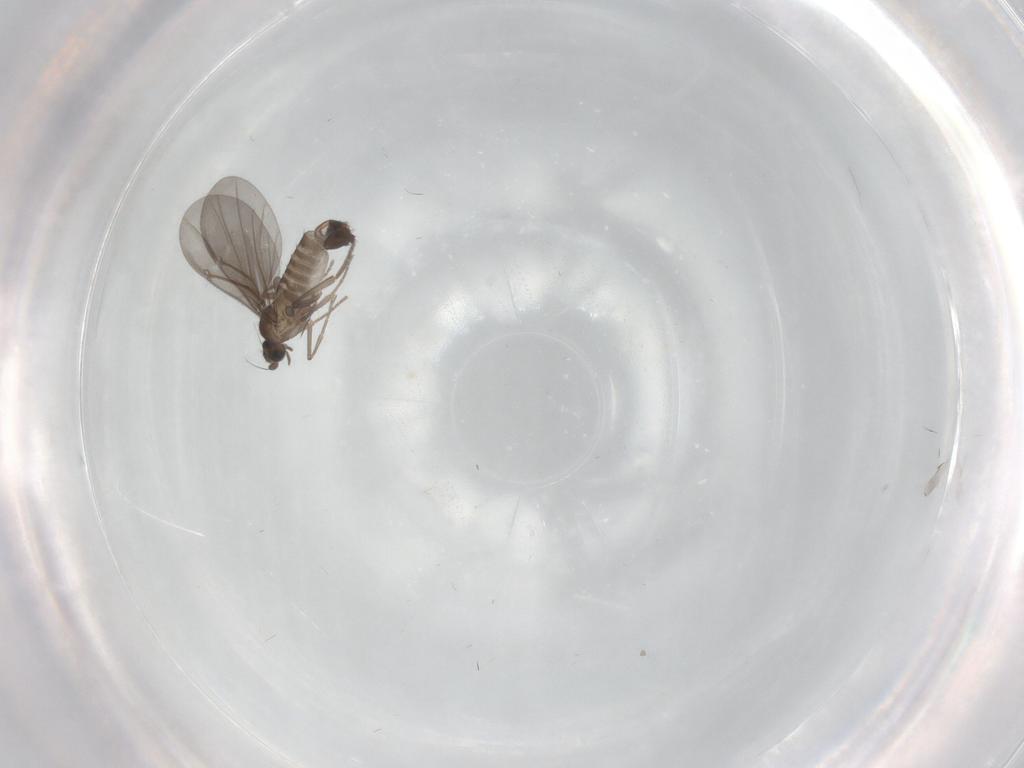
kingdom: Animalia
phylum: Arthropoda
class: Insecta
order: Diptera
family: Phoridae
